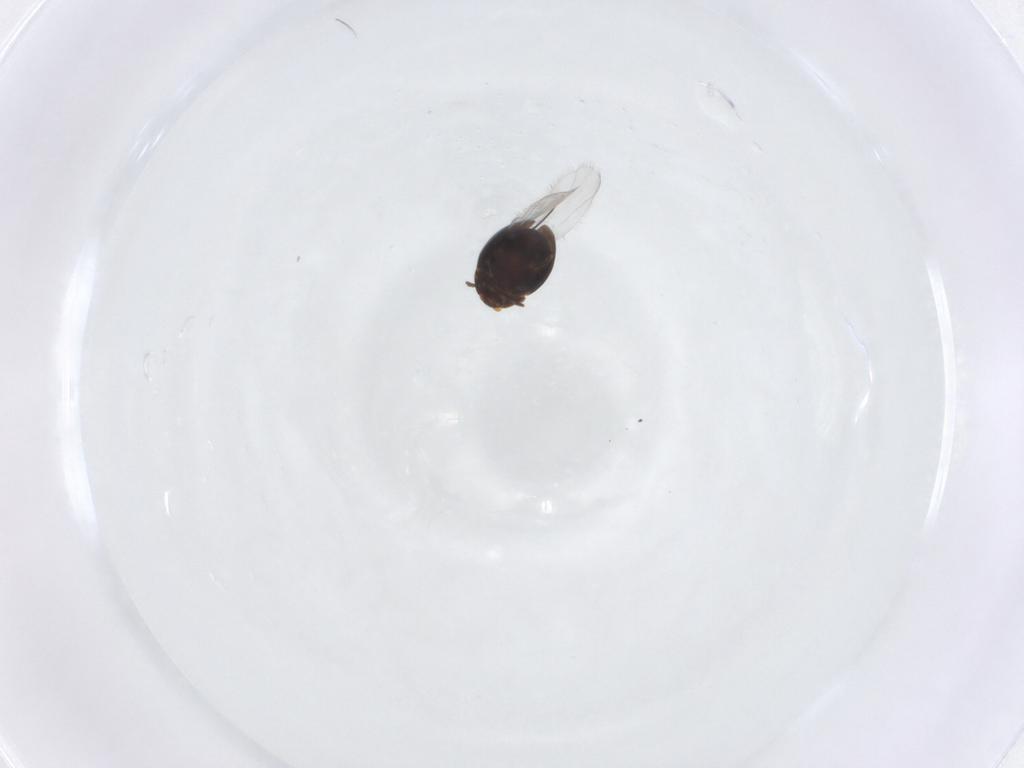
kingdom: Animalia
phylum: Arthropoda
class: Insecta
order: Coleoptera
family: Corylophidae
